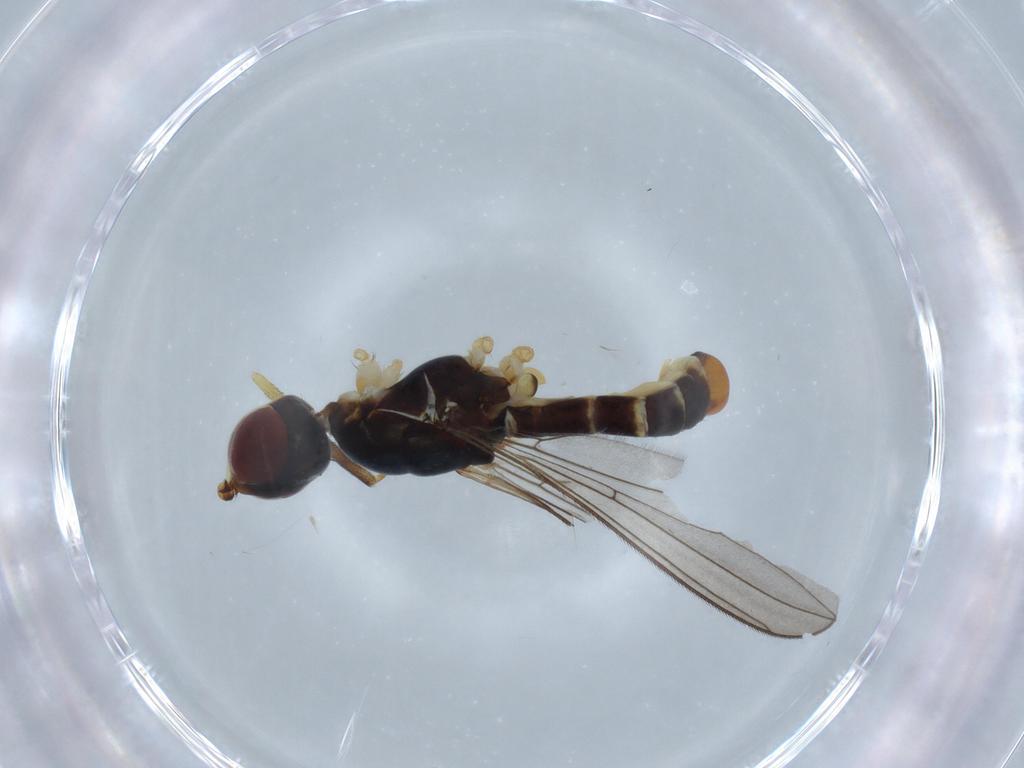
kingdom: Animalia
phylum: Arthropoda
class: Insecta
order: Diptera
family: Micropezidae
